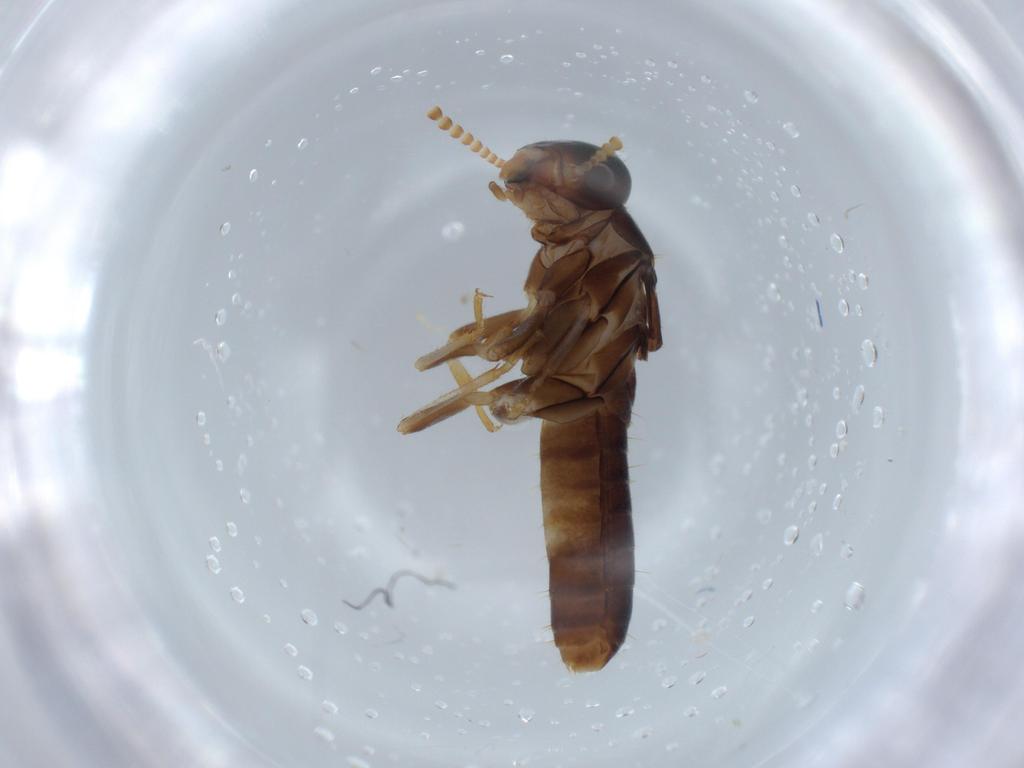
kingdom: Animalia
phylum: Arthropoda
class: Insecta
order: Blattodea
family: Kalotermitidae
